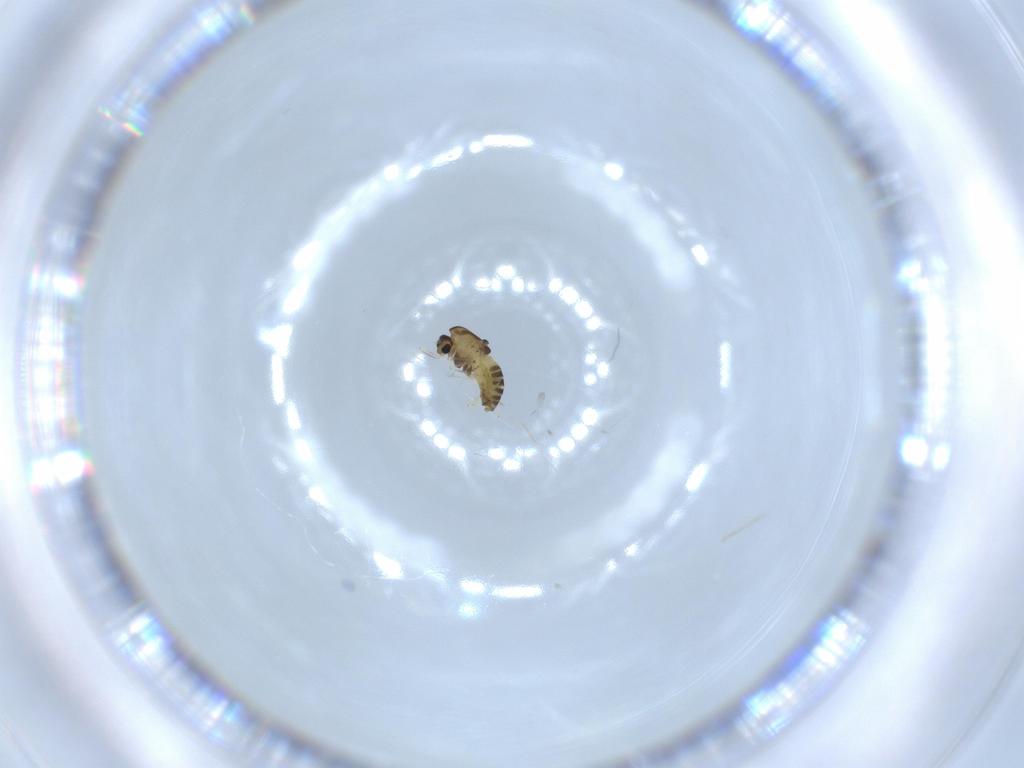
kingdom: Animalia
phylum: Arthropoda
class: Insecta
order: Diptera
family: Chironomidae
